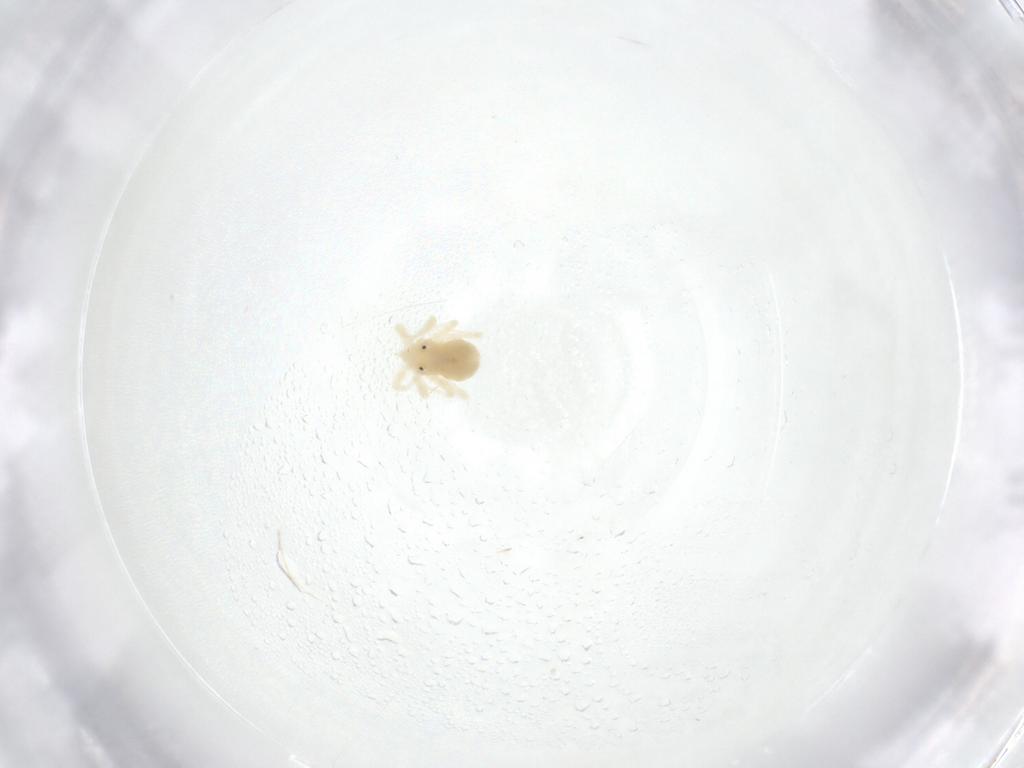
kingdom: Animalia
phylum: Arthropoda
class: Arachnida
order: Trombidiformes
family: Anystidae
